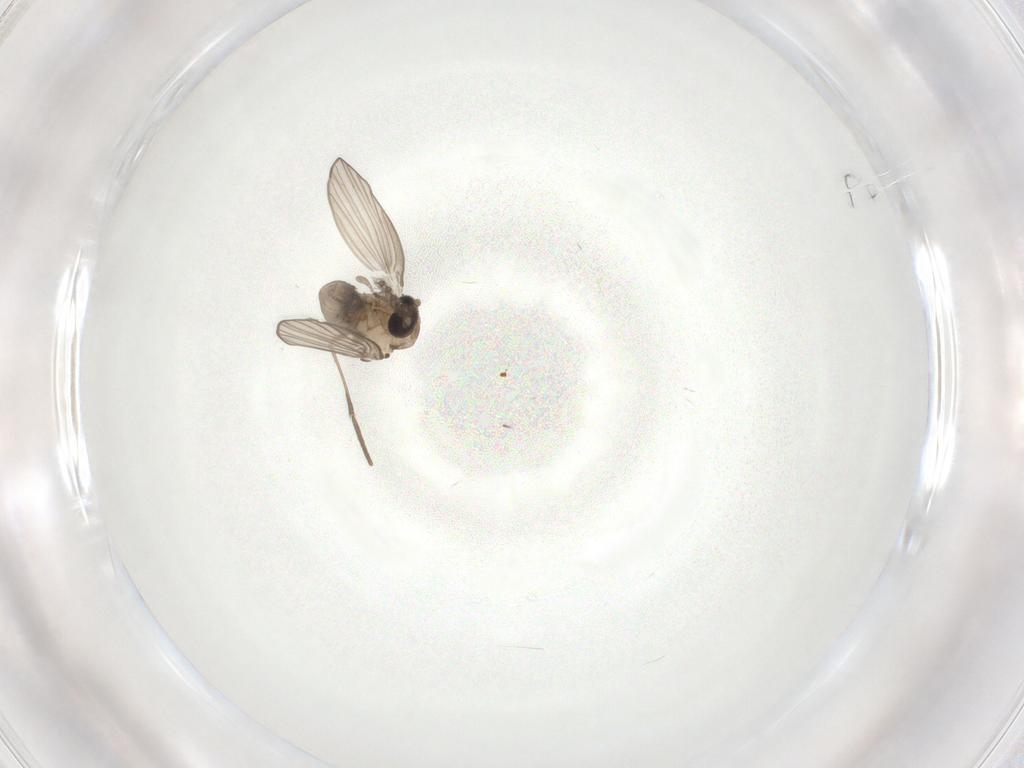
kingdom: Animalia
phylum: Arthropoda
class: Insecta
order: Diptera
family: Psychodidae
